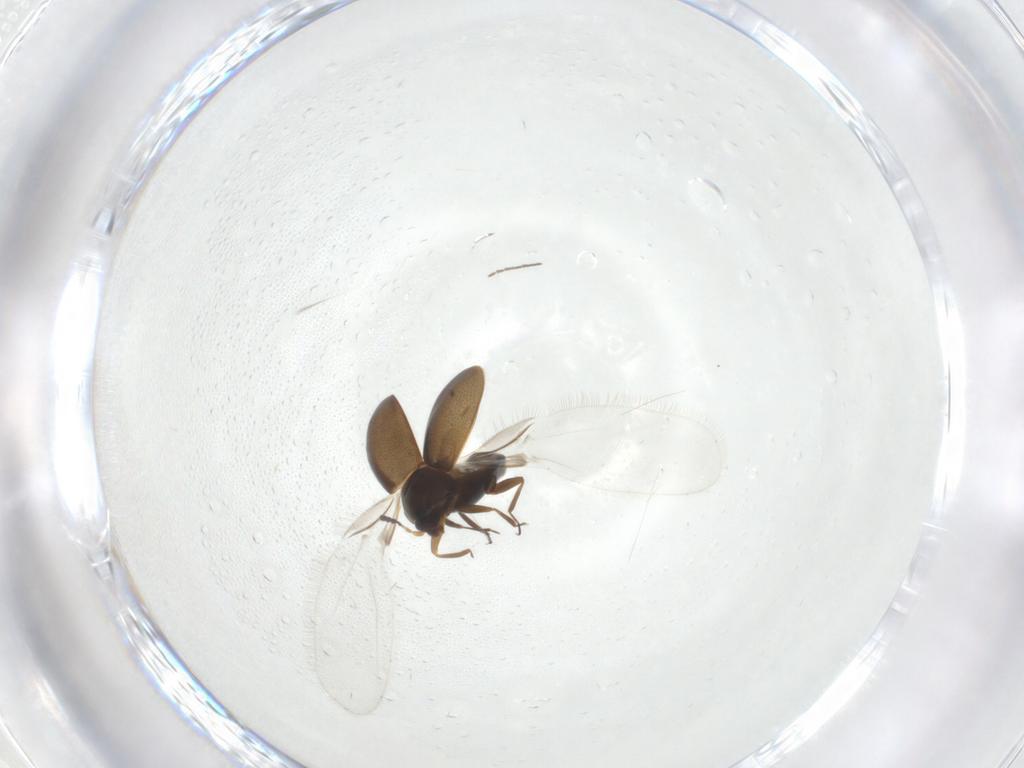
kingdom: Animalia
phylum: Arthropoda
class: Insecta
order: Coleoptera
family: Corylophidae
